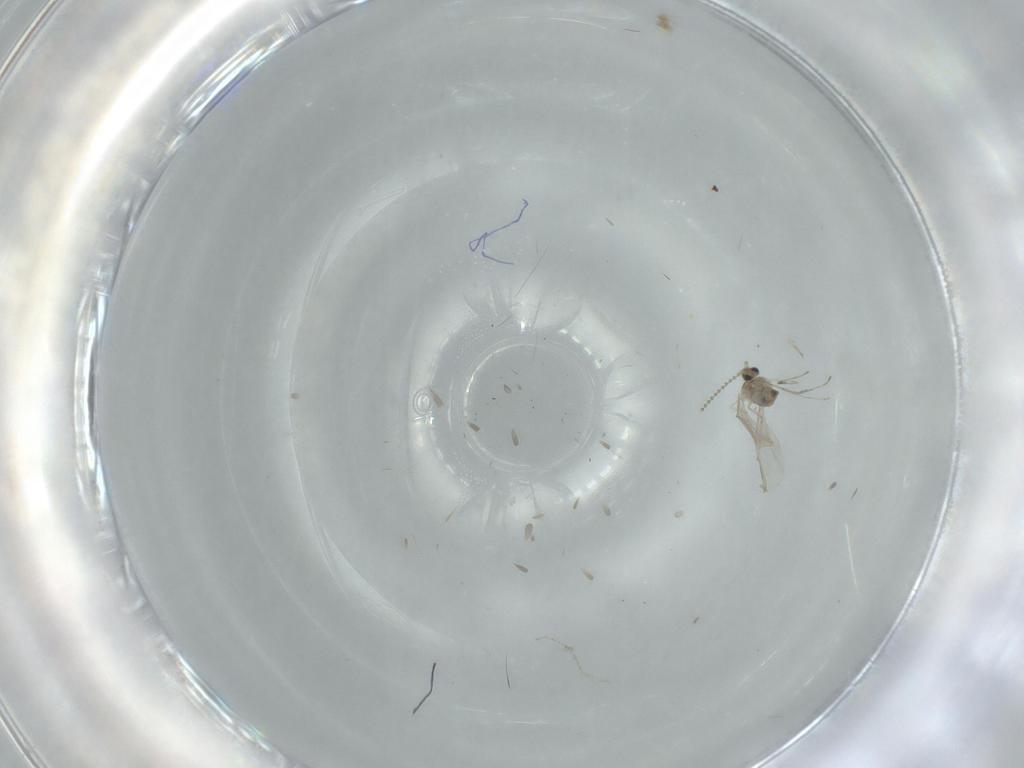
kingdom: Animalia
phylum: Arthropoda
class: Insecta
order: Diptera
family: Cecidomyiidae
